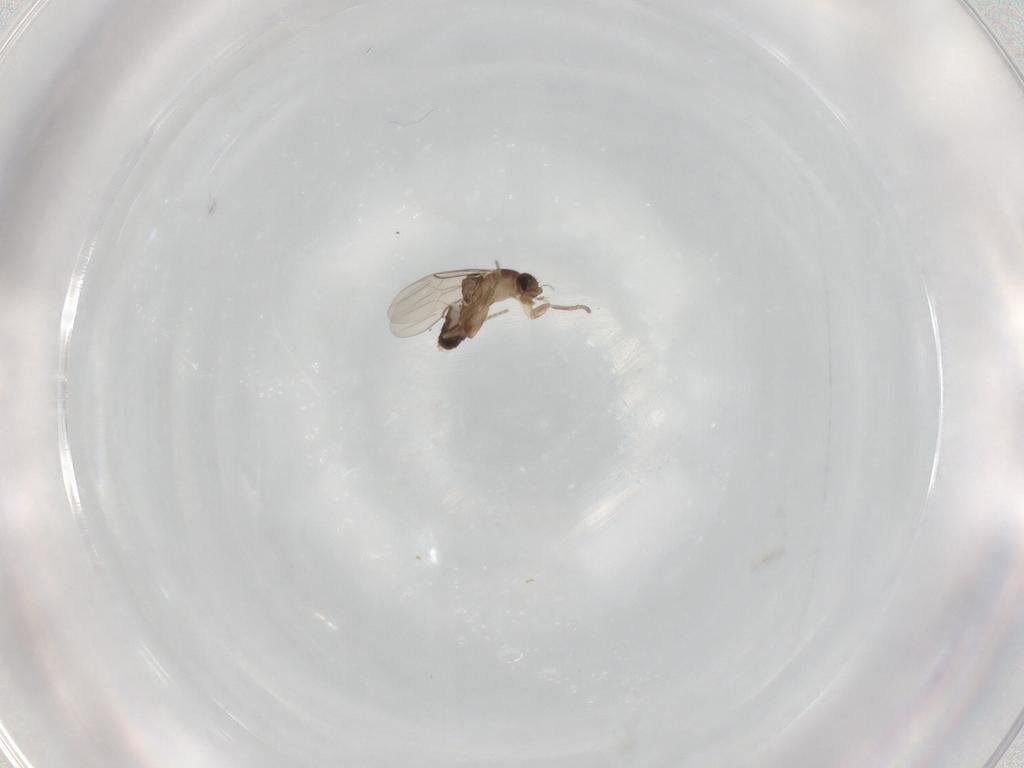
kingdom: Animalia
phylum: Arthropoda
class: Insecta
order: Diptera
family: Phoridae
